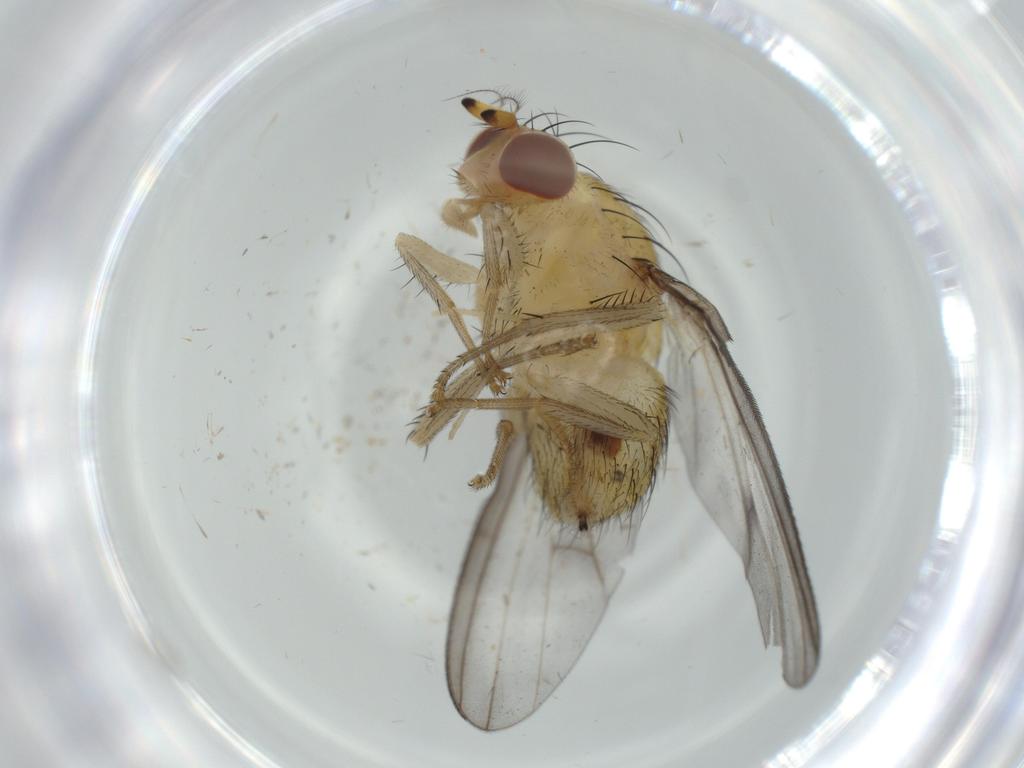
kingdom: Animalia
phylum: Arthropoda
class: Insecta
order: Diptera
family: Lauxaniidae
